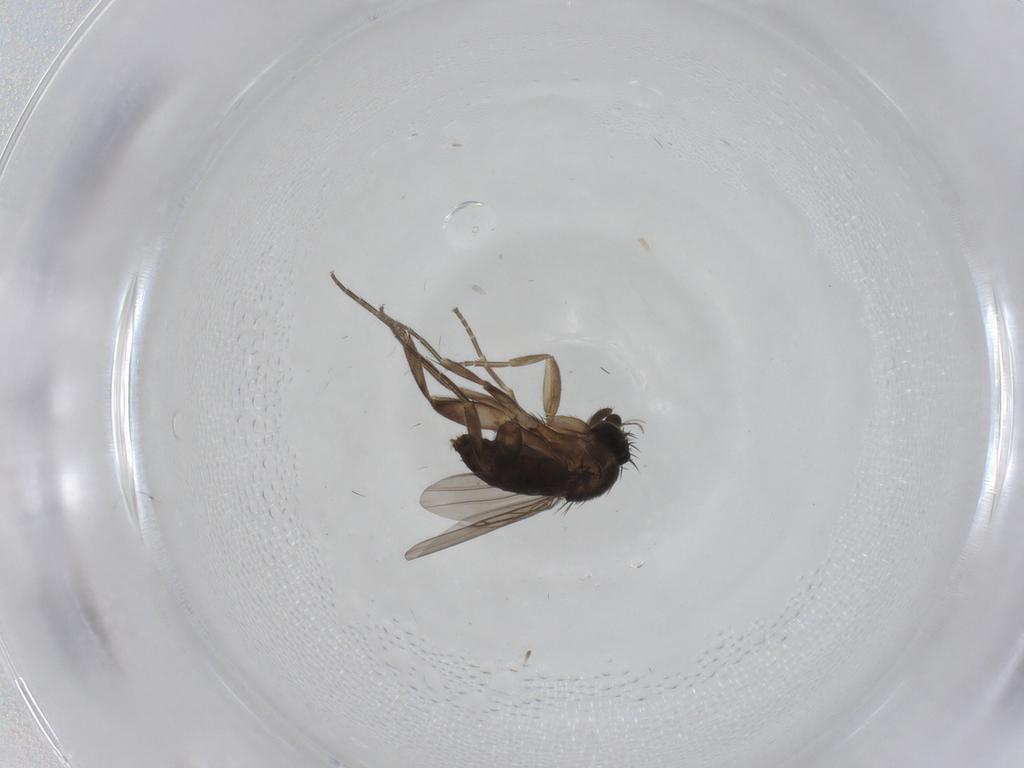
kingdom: Animalia
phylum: Arthropoda
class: Insecta
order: Diptera
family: Phoridae
